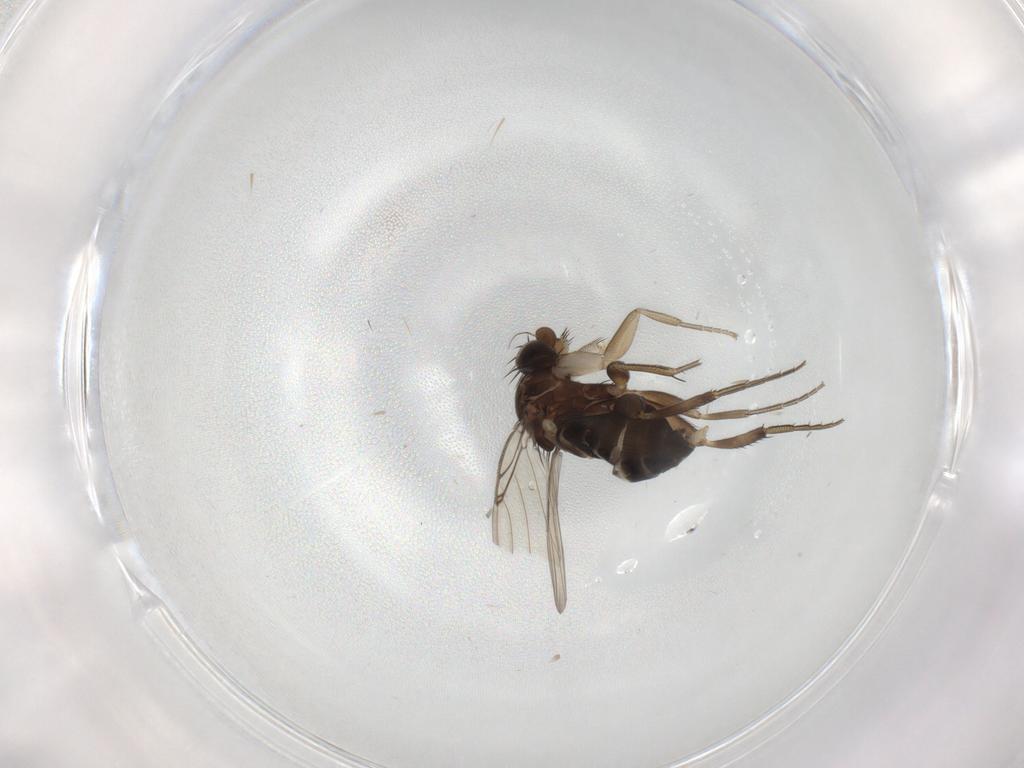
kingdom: Animalia
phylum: Arthropoda
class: Insecta
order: Diptera
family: Phoridae
